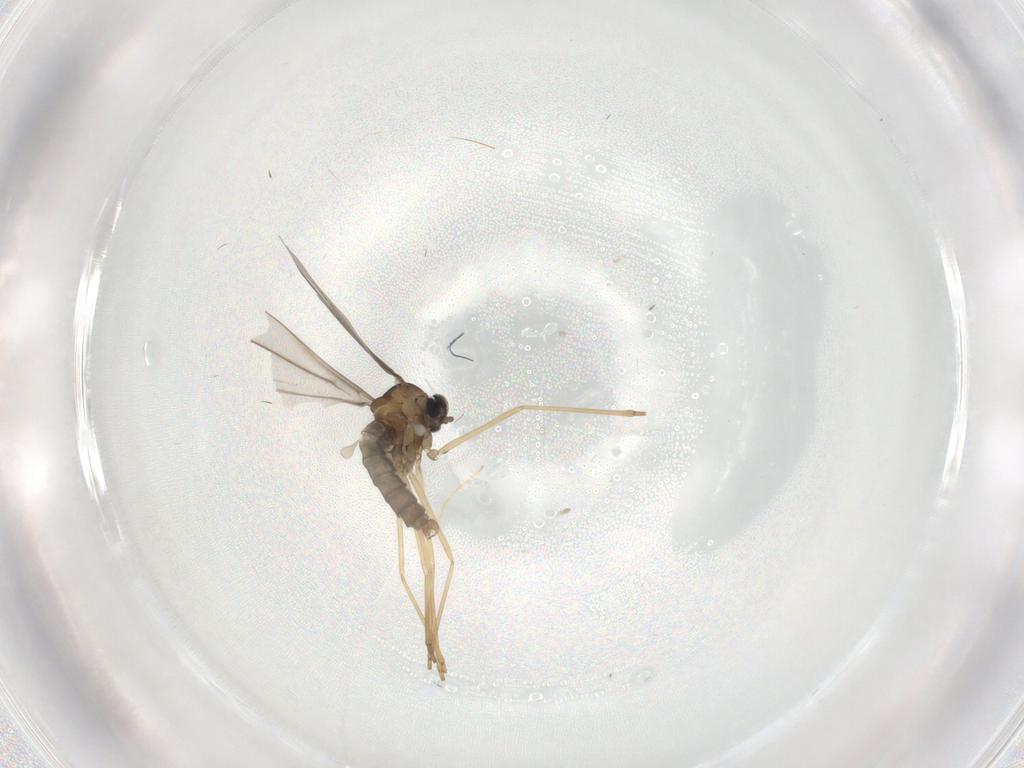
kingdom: Animalia
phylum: Arthropoda
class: Insecta
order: Diptera
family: Cecidomyiidae
